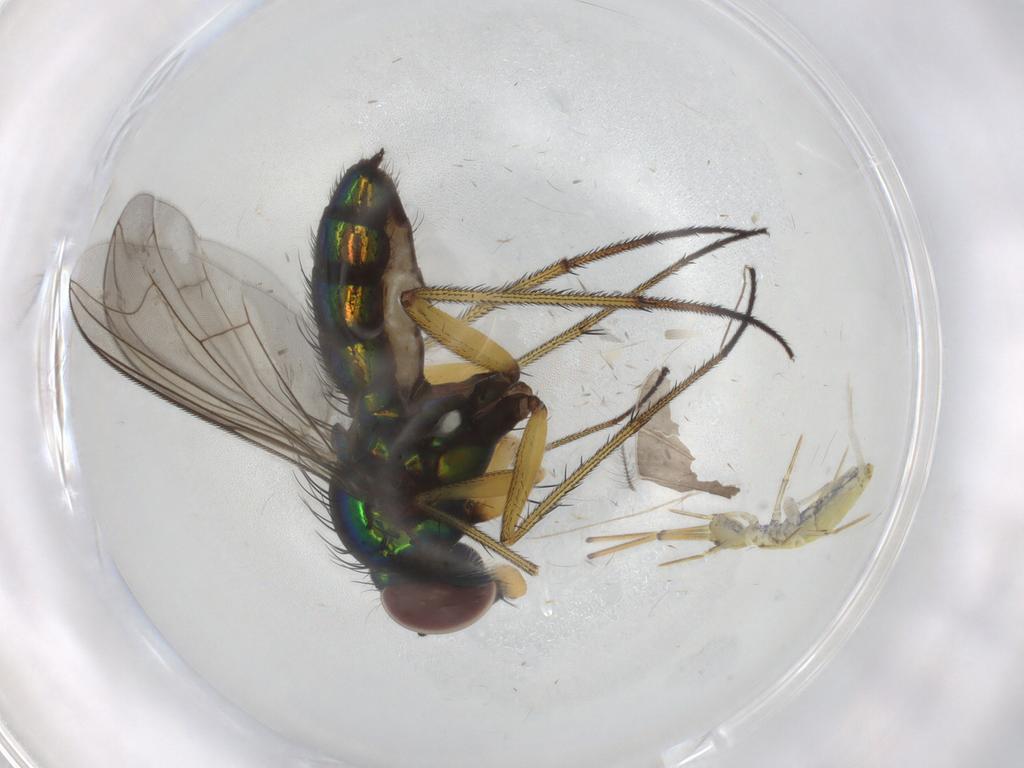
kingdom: Animalia
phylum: Arthropoda
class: Insecta
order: Diptera
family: Dolichopodidae
